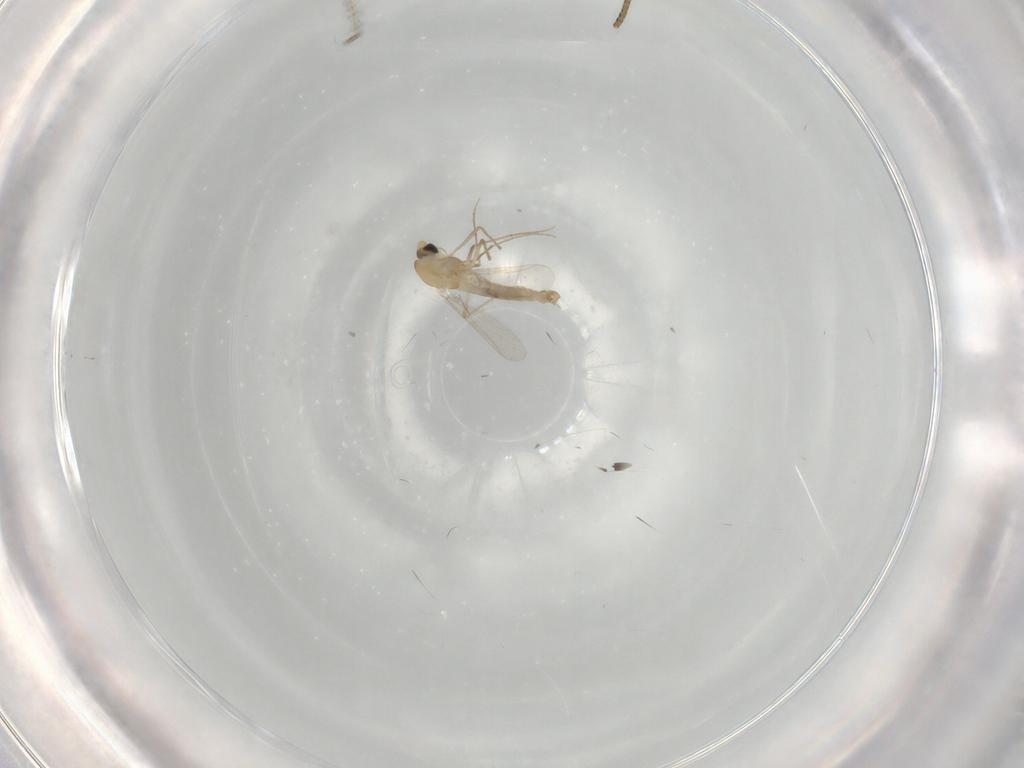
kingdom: Animalia
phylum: Arthropoda
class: Insecta
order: Diptera
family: Chironomidae
